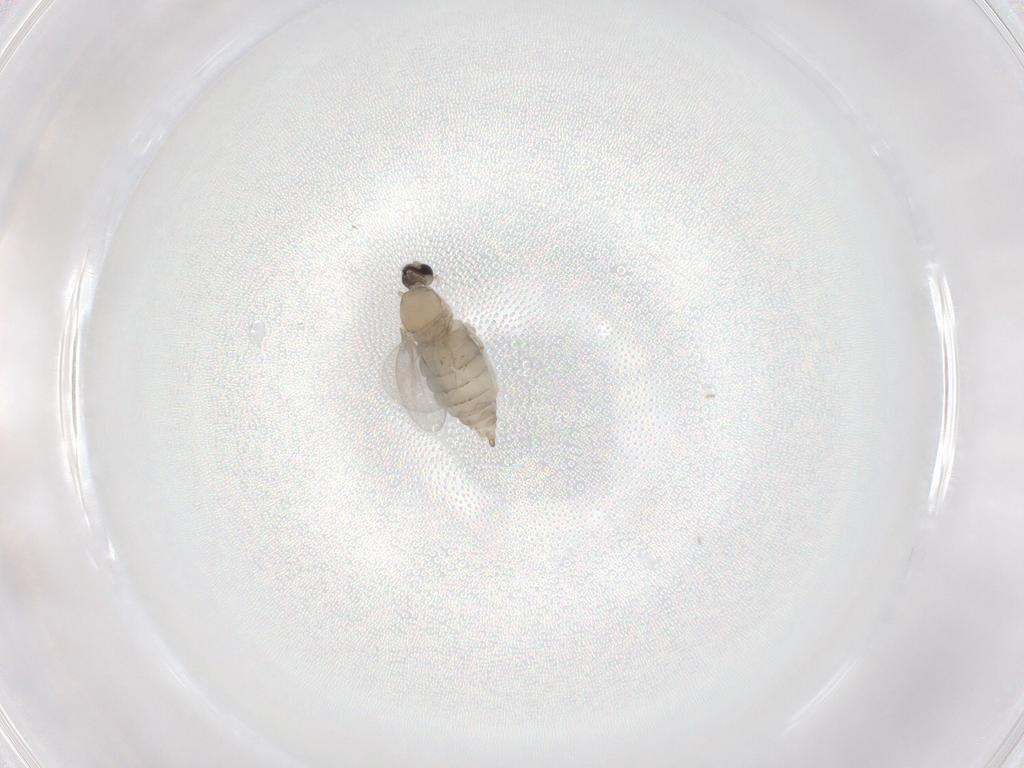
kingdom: Animalia
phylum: Arthropoda
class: Insecta
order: Diptera
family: Cecidomyiidae
